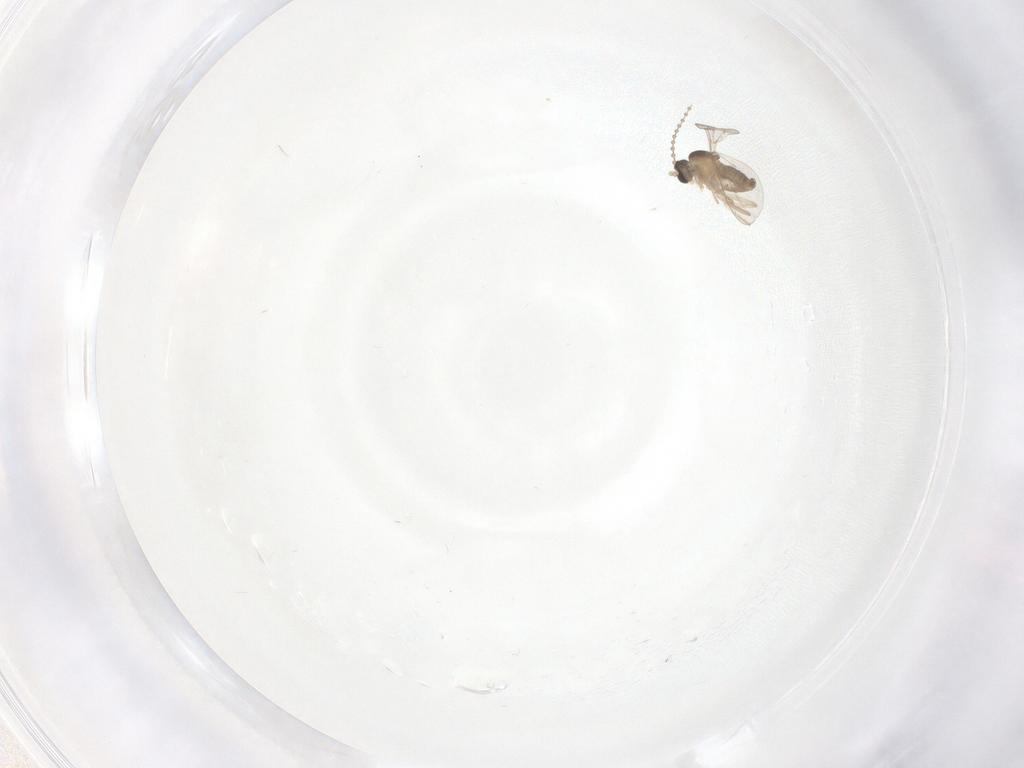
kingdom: Animalia
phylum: Arthropoda
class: Insecta
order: Diptera
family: Cecidomyiidae
